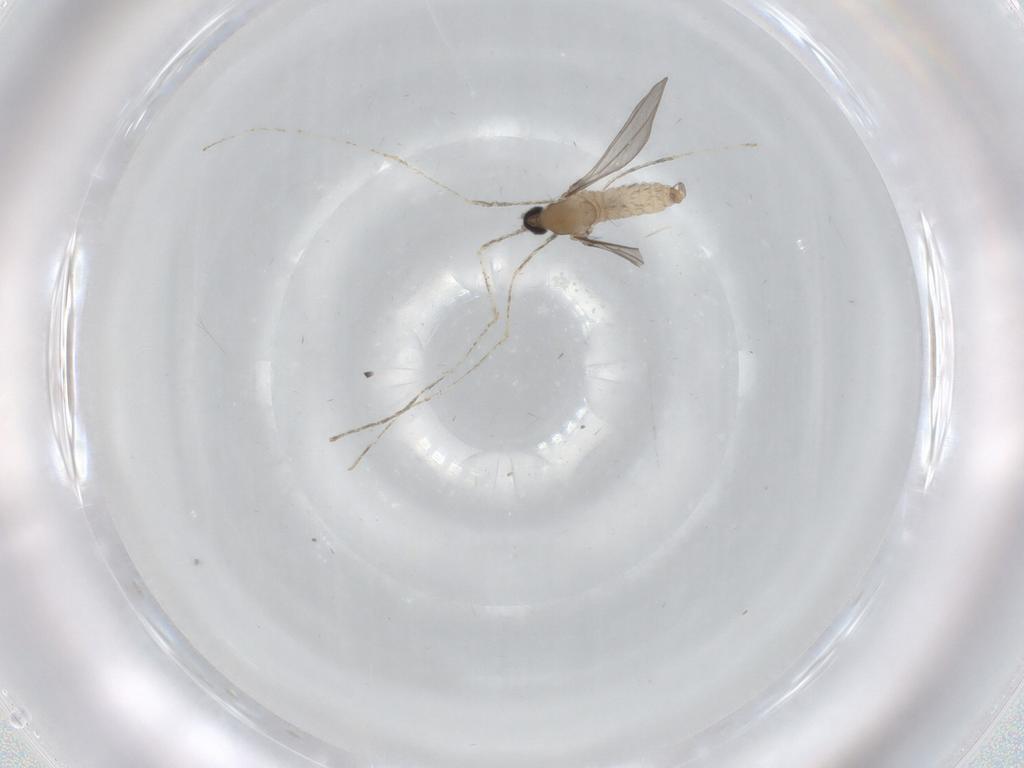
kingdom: Animalia
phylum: Arthropoda
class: Insecta
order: Diptera
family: Cecidomyiidae
